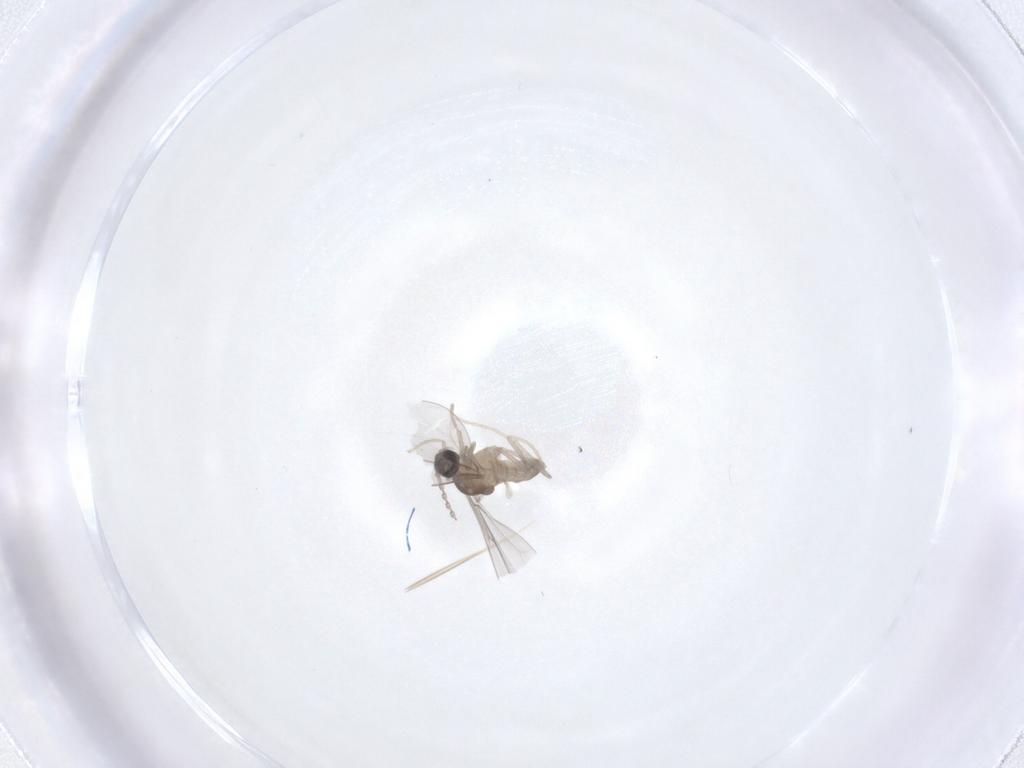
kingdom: Animalia
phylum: Arthropoda
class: Insecta
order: Diptera
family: Cecidomyiidae
